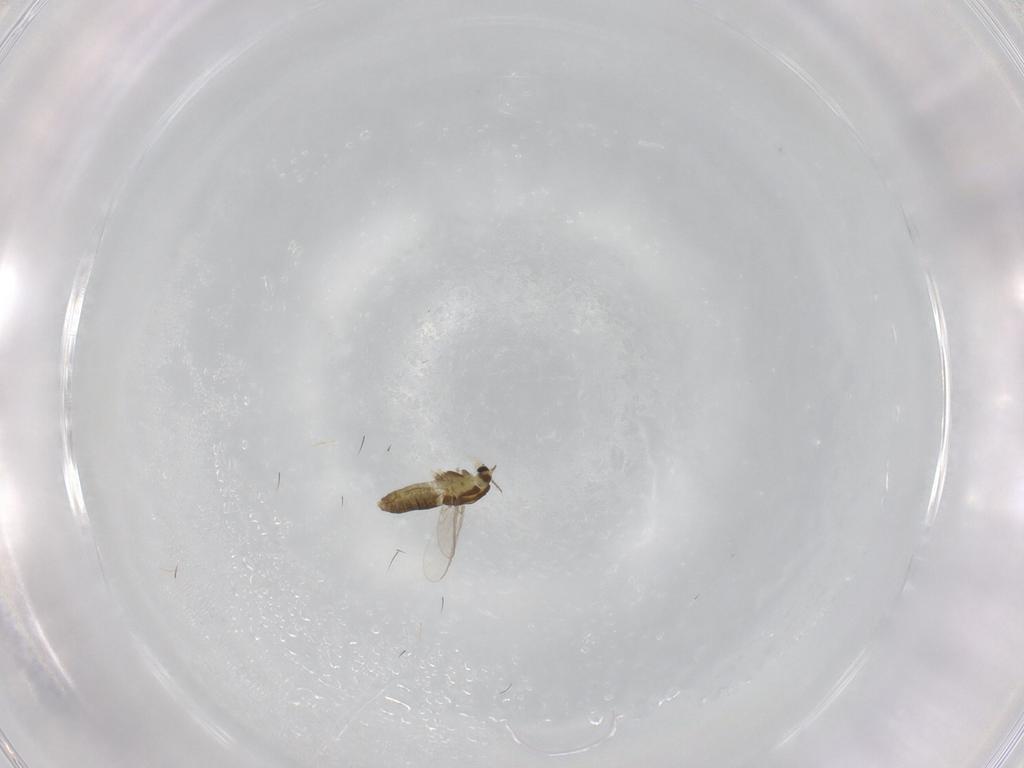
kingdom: Animalia
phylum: Arthropoda
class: Insecta
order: Diptera
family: Chironomidae
